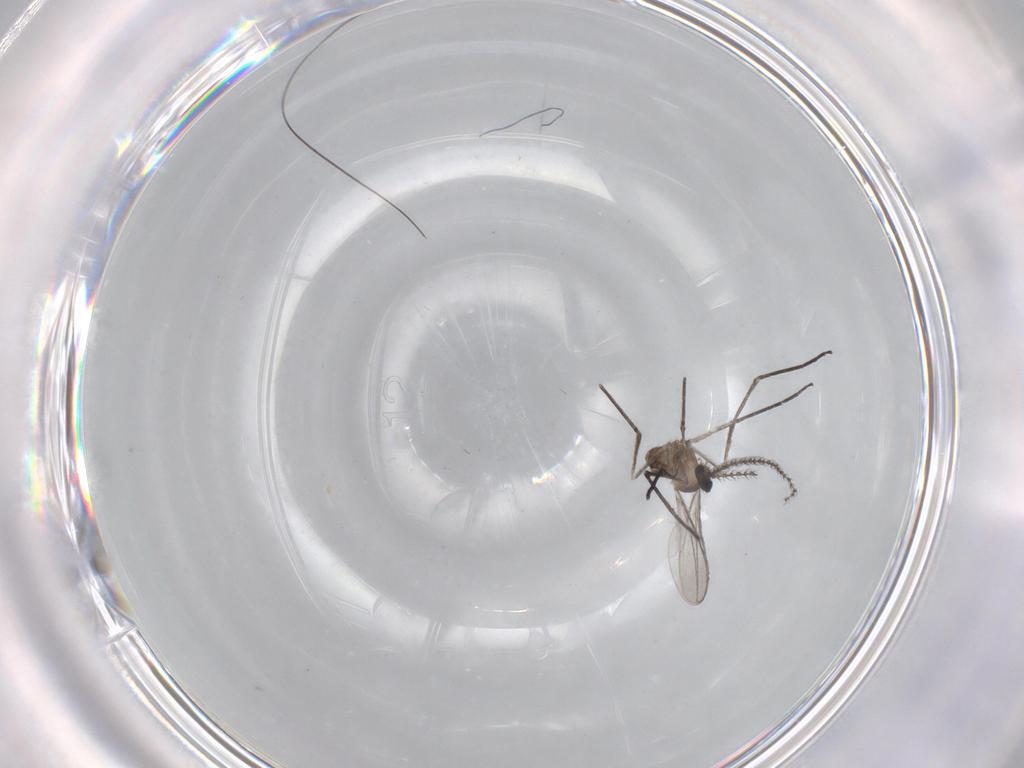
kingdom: Animalia
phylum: Arthropoda
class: Insecta
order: Diptera
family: Cecidomyiidae
